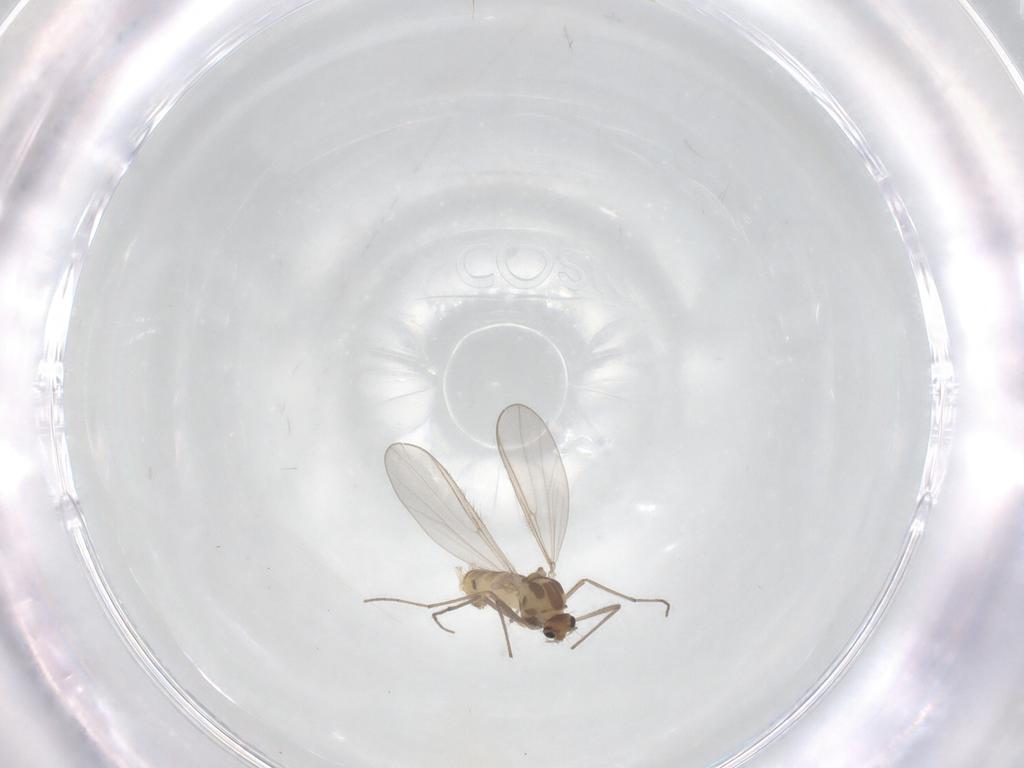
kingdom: Animalia
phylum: Arthropoda
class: Insecta
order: Diptera
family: Chironomidae
